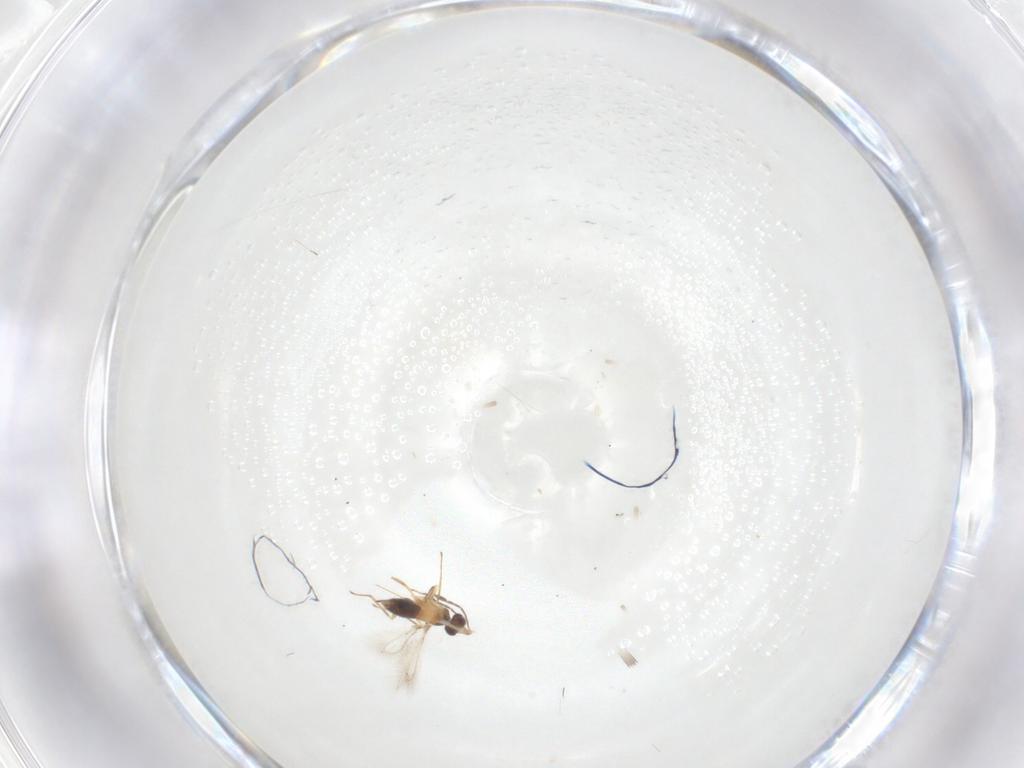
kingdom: Animalia
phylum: Arthropoda
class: Insecta
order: Hymenoptera
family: Mymaridae
